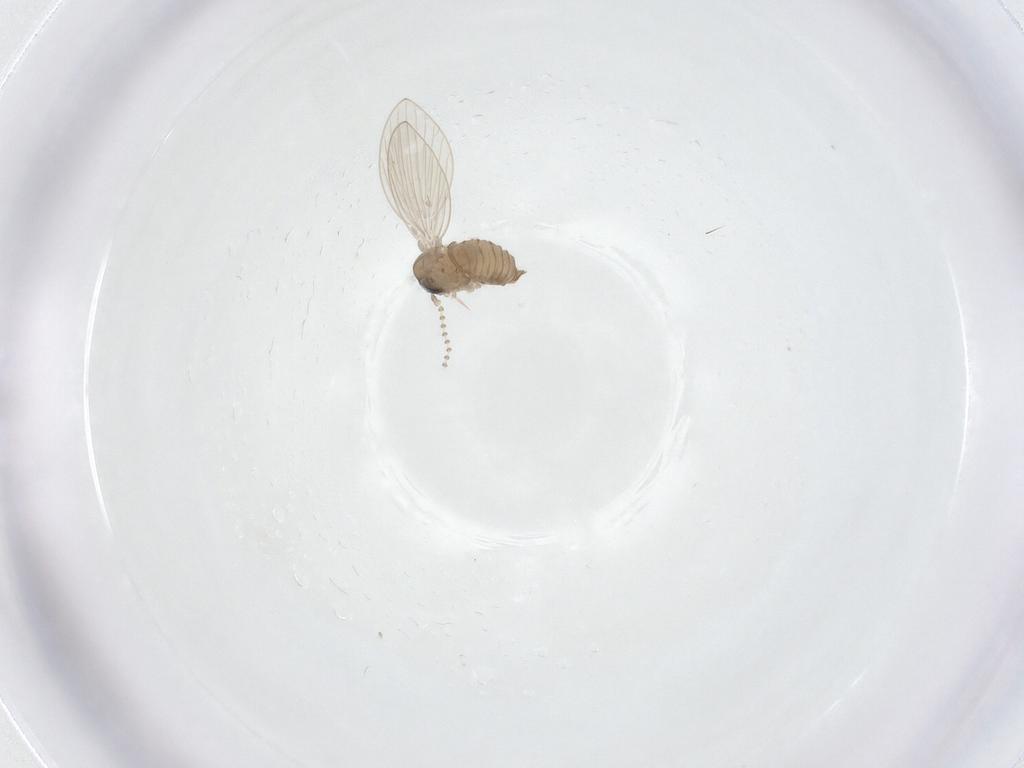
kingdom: Animalia
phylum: Arthropoda
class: Insecta
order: Diptera
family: Psychodidae
